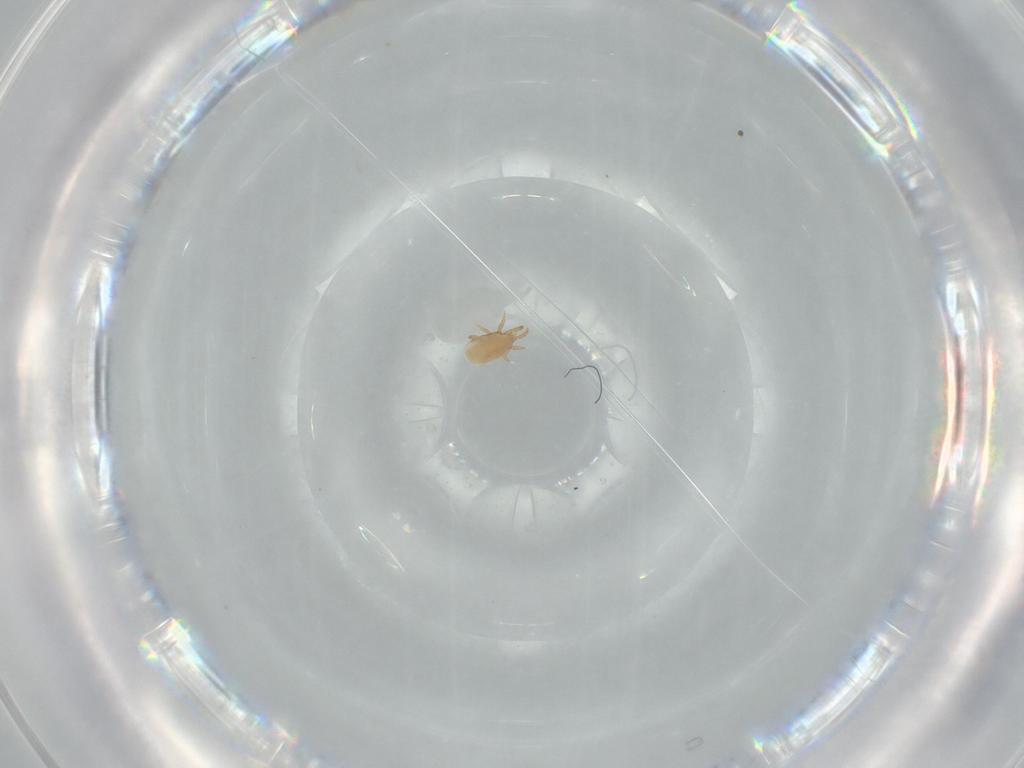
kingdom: Animalia
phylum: Arthropoda
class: Arachnida
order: Mesostigmata
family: Dinychidae
